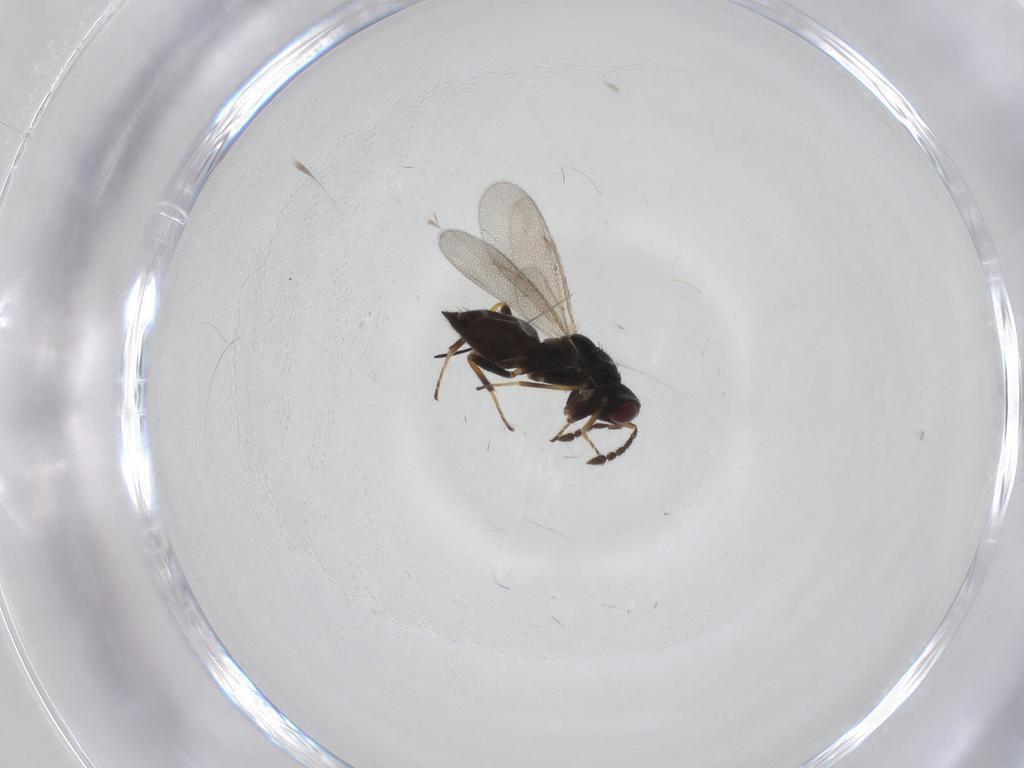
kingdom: Animalia
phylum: Arthropoda
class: Insecta
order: Hymenoptera
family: Eulophidae
